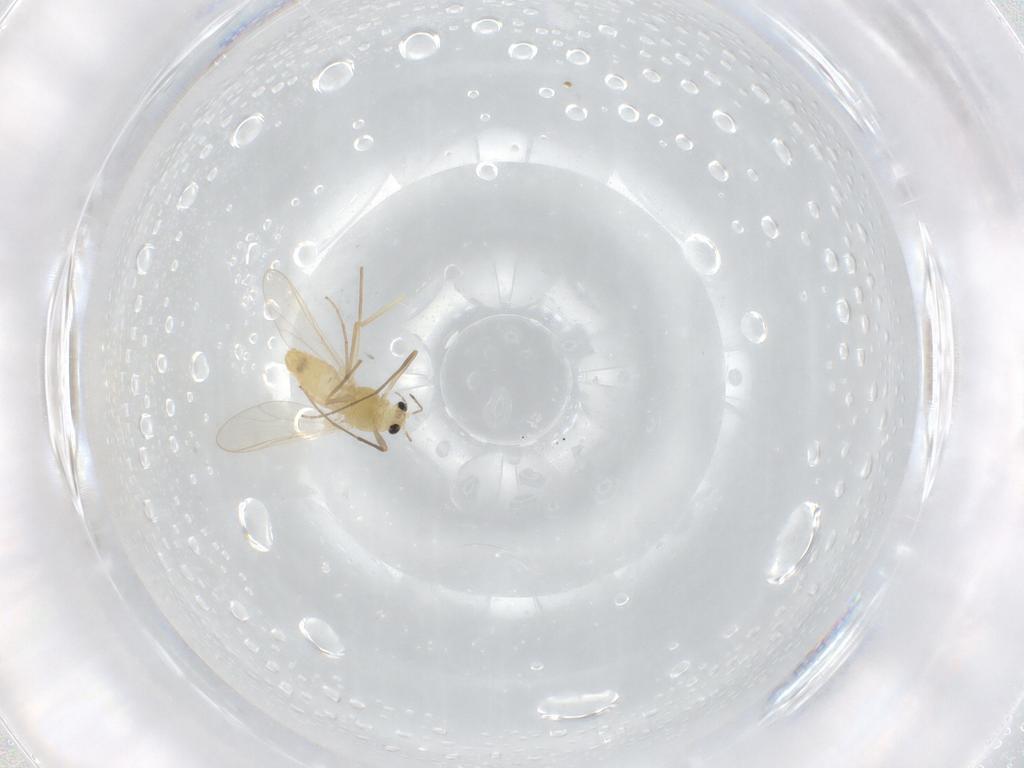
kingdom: Animalia
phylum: Arthropoda
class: Insecta
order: Diptera
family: Chironomidae
